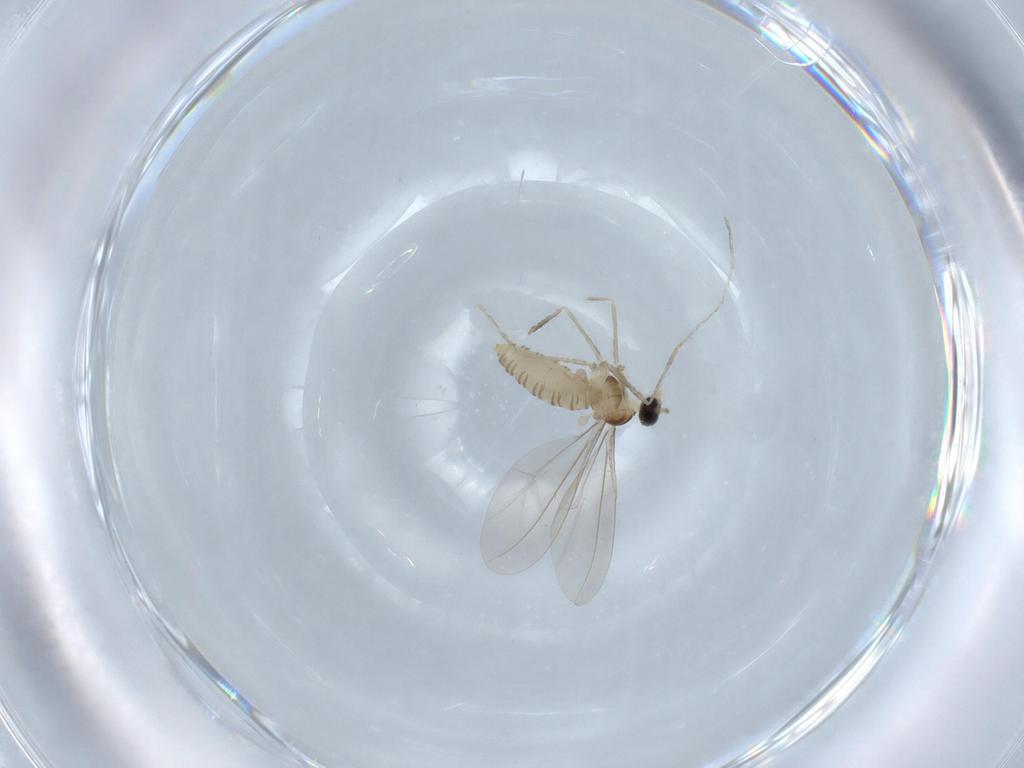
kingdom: Animalia
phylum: Arthropoda
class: Insecta
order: Diptera
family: Cecidomyiidae
